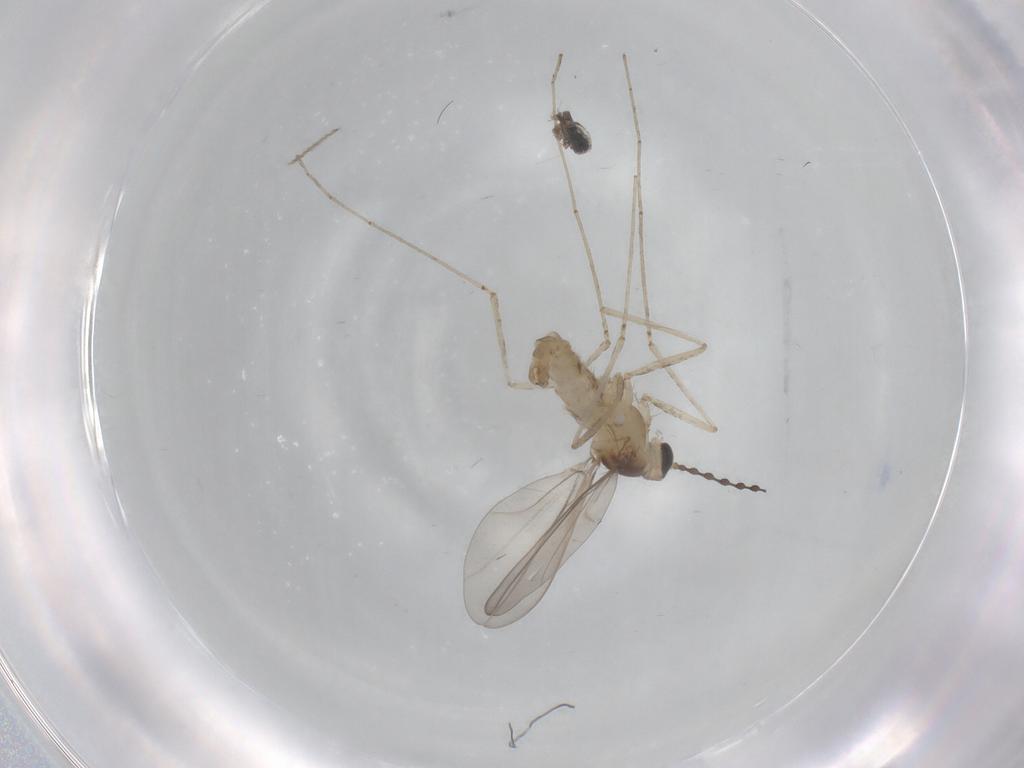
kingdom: Animalia
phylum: Arthropoda
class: Insecta
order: Diptera
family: Cecidomyiidae
